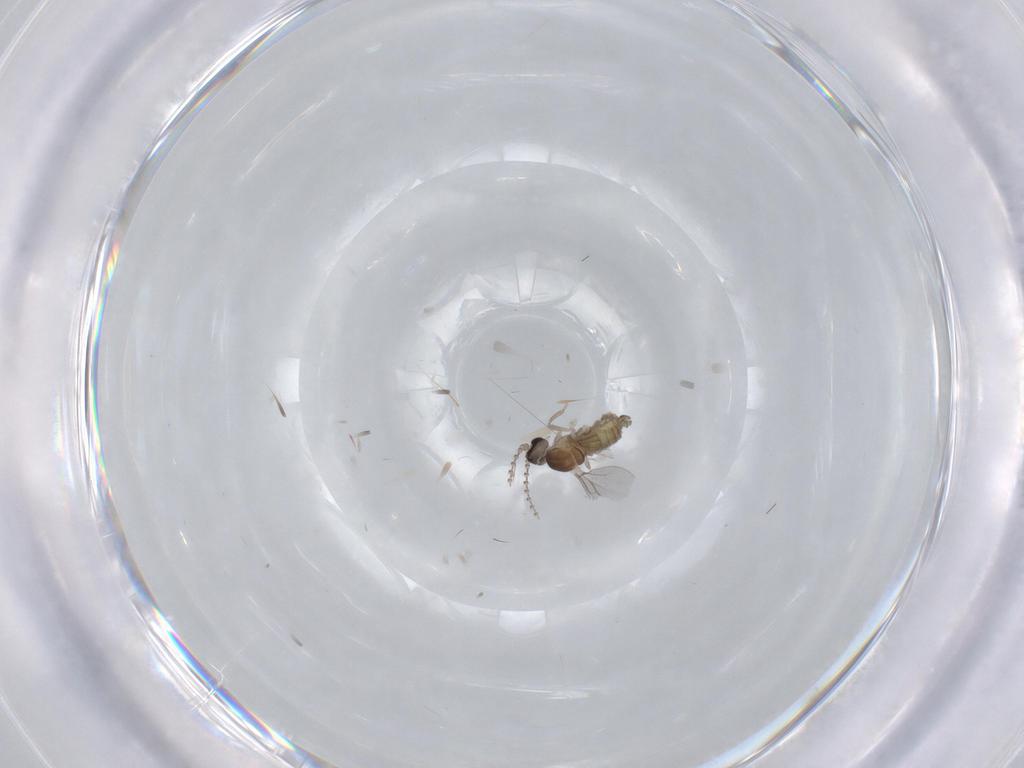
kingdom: Animalia
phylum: Arthropoda
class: Insecta
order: Diptera
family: Cecidomyiidae
